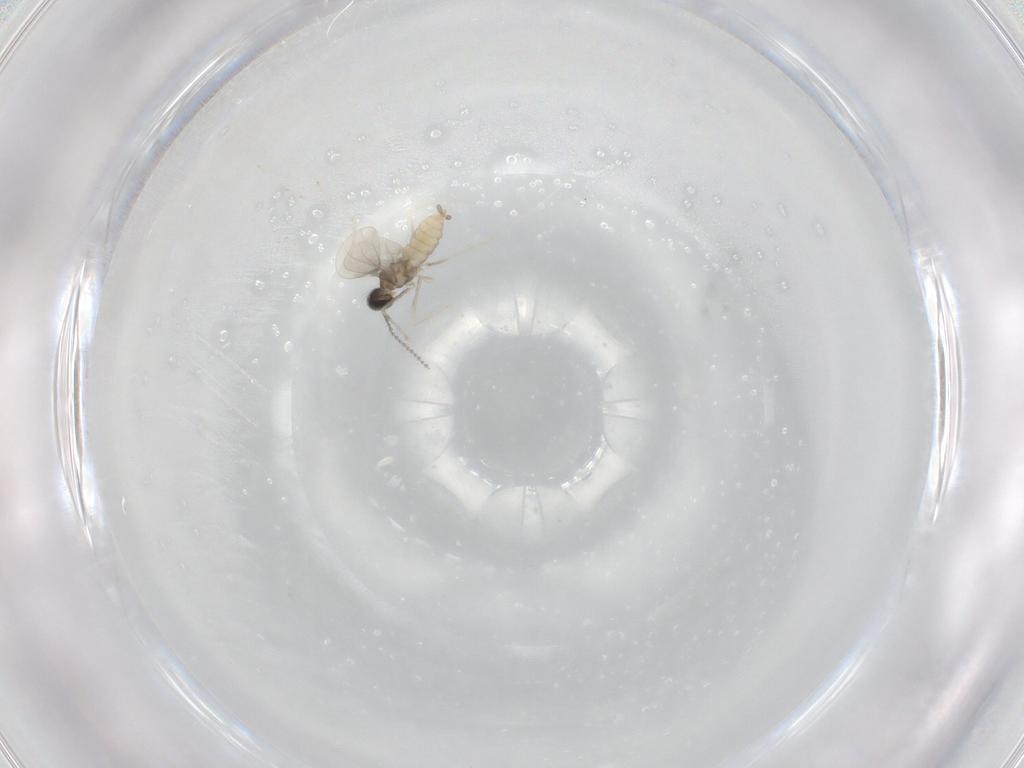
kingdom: Animalia
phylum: Arthropoda
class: Insecta
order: Diptera
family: Cecidomyiidae
